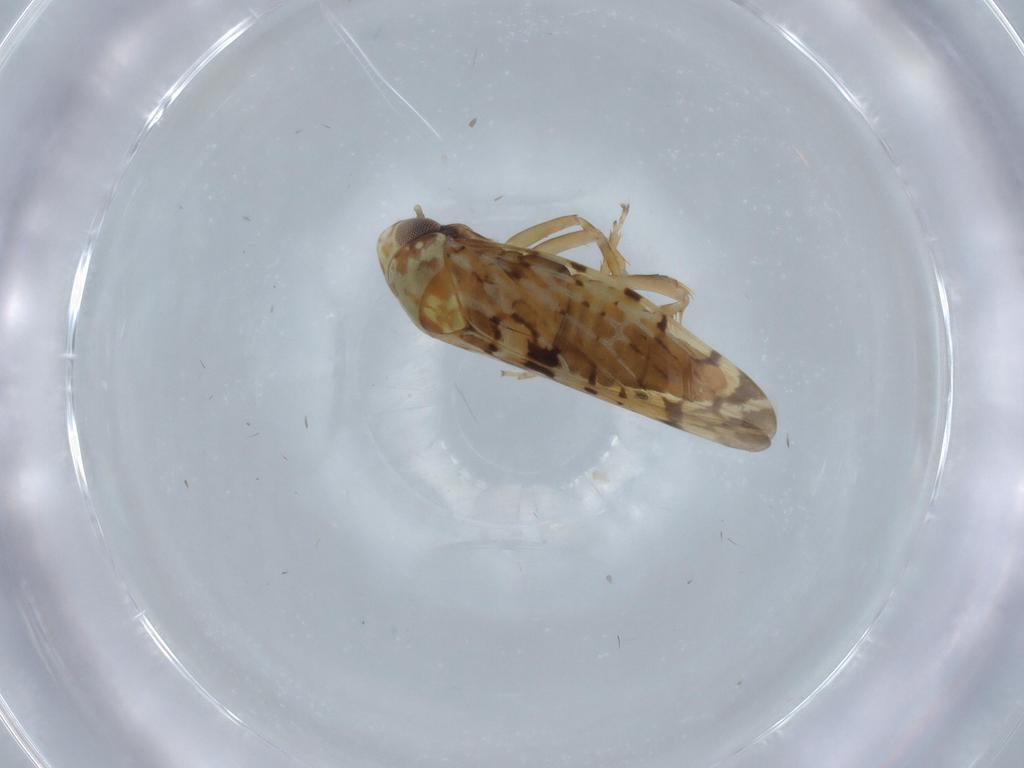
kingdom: Animalia
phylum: Arthropoda
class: Insecta
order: Hemiptera
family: Cicadellidae
